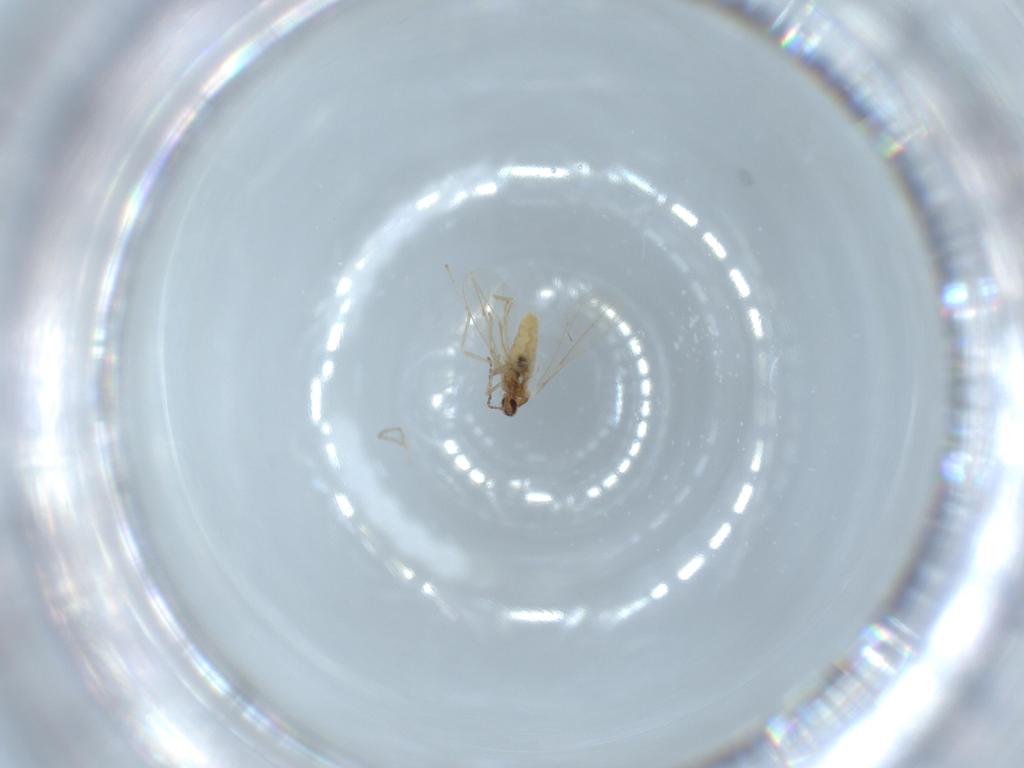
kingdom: Animalia
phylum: Arthropoda
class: Insecta
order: Diptera
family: Cecidomyiidae
